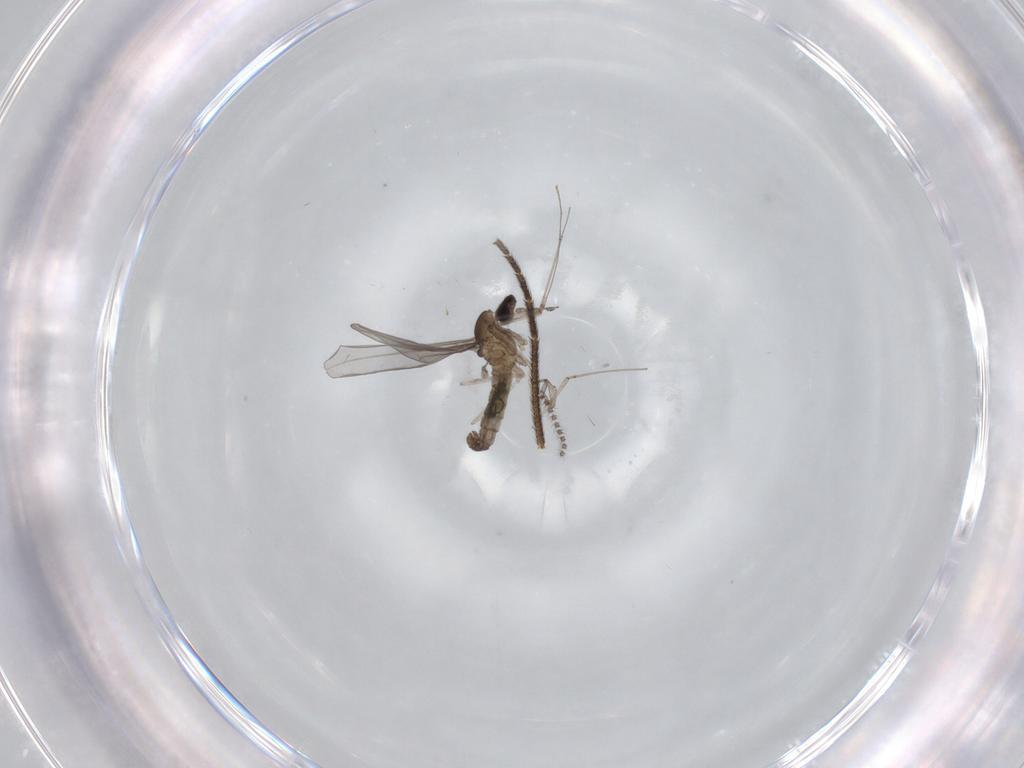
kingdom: Animalia
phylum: Arthropoda
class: Insecta
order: Diptera
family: Cecidomyiidae
